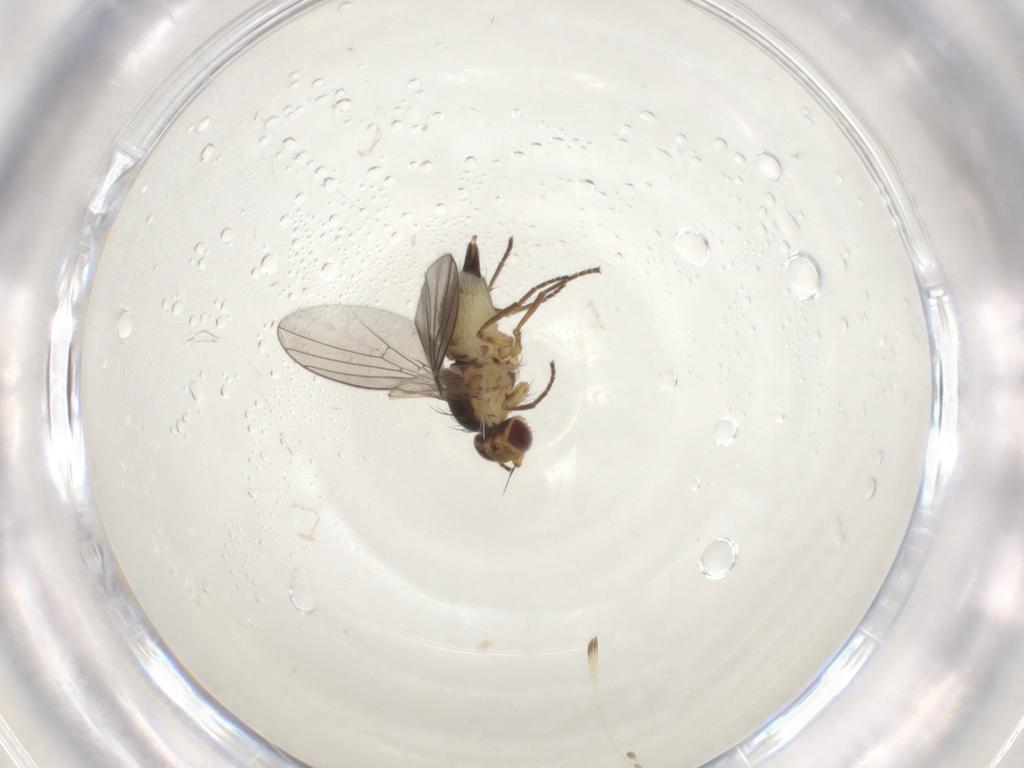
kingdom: Animalia
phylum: Arthropoda
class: Insecta
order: Diptera
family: Agromyzidae
